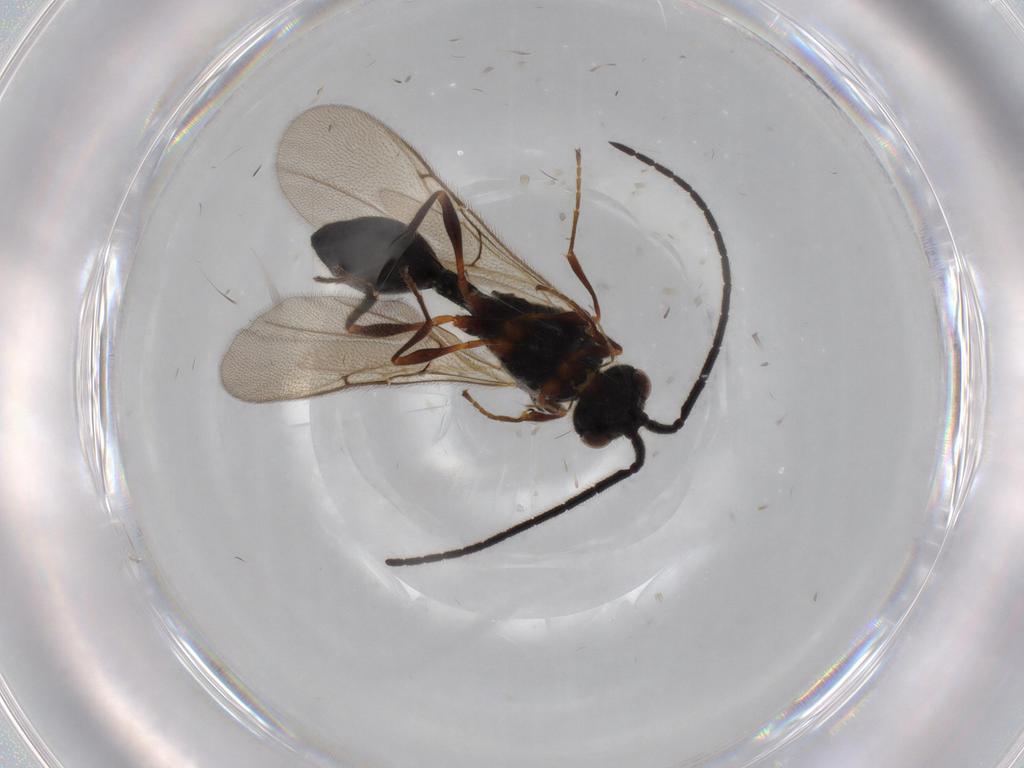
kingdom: Animalia
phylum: Arthropoda
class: Insecta
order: Hymenoptera
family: Diapriidae
